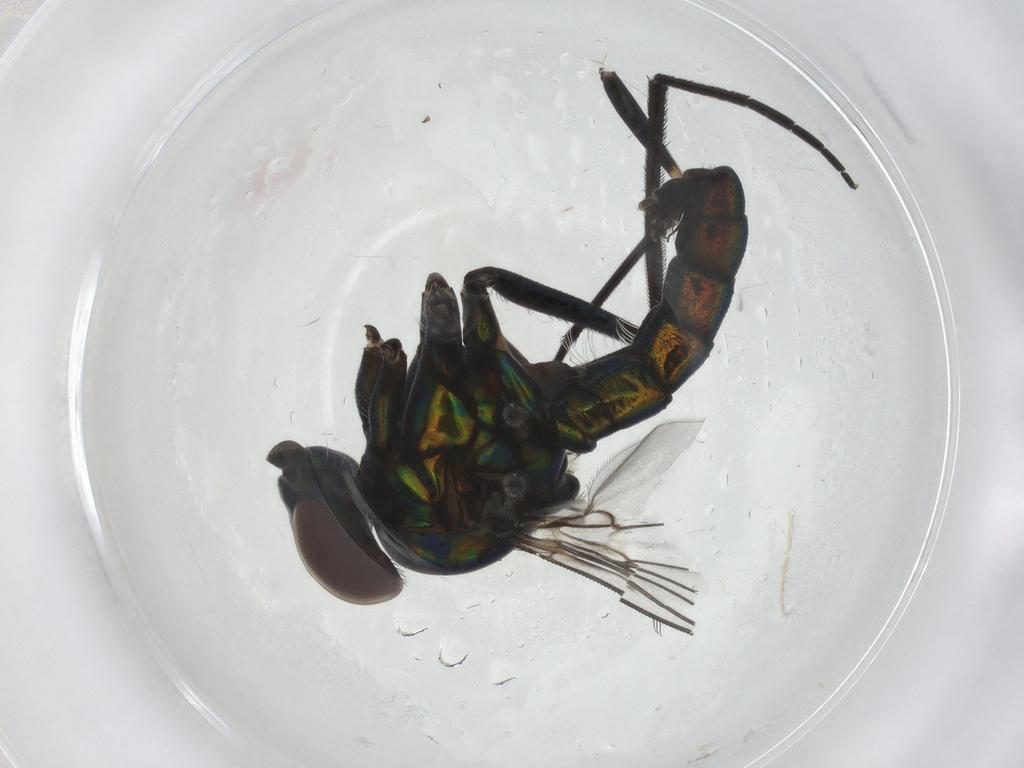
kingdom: Animalia
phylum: Arthropoda
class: Insecta
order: Diptera
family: Dolichopodidae
